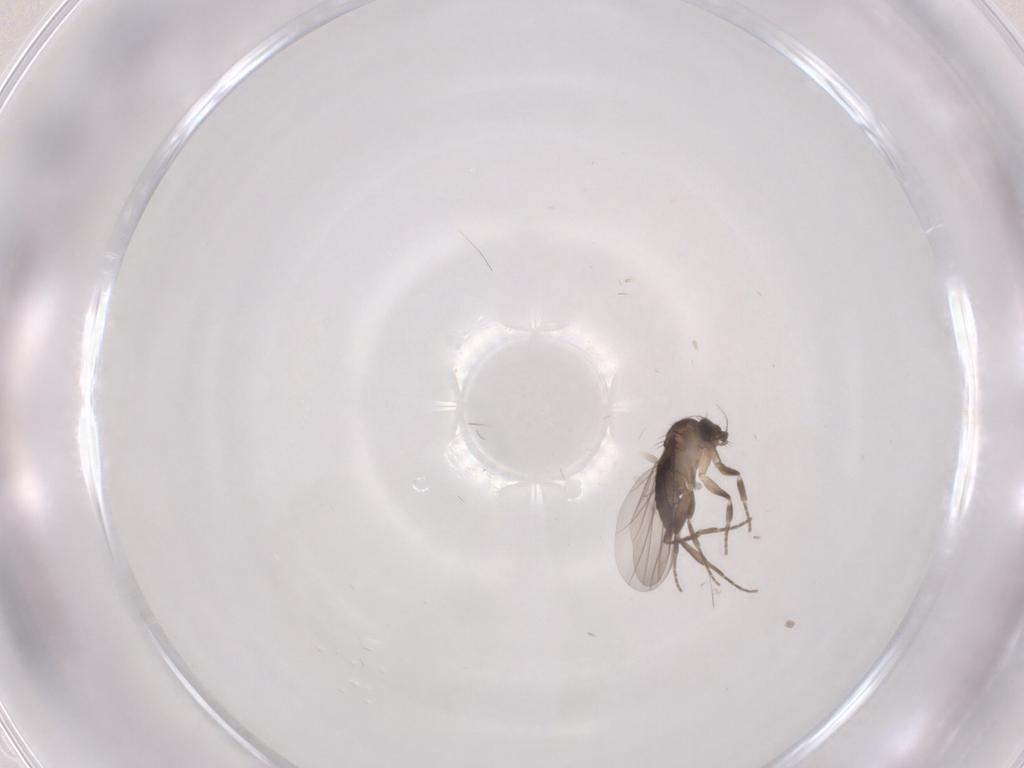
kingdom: Animalia
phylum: Arthropoda
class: Insecta
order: Diptera
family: Phoridae
